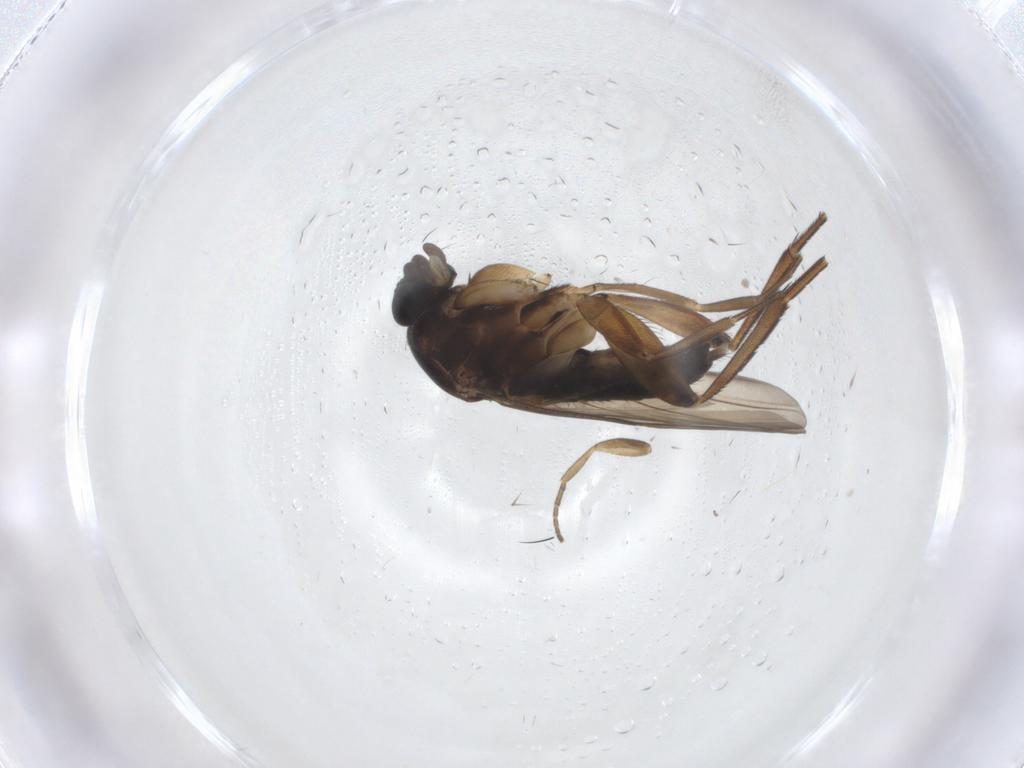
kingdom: Animalia
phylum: Arthropoda
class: Insecta
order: Diptera
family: Phoridae
